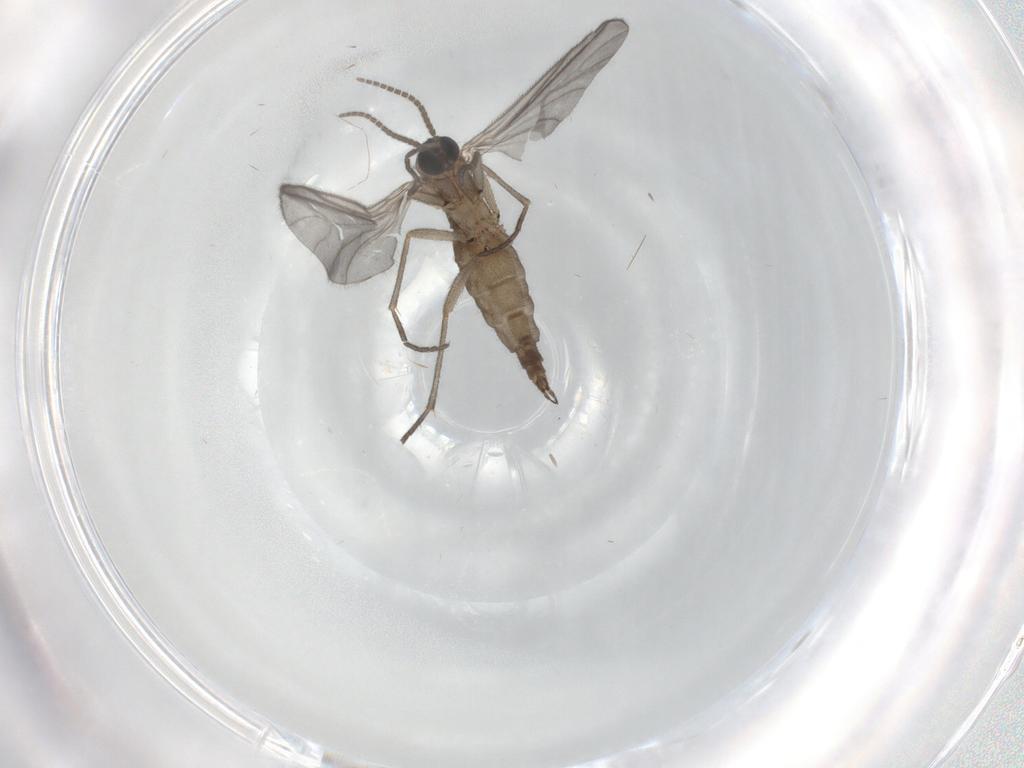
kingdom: Animalia
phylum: Arthropoda
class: Insecta
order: Diptera
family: Sciaridae
